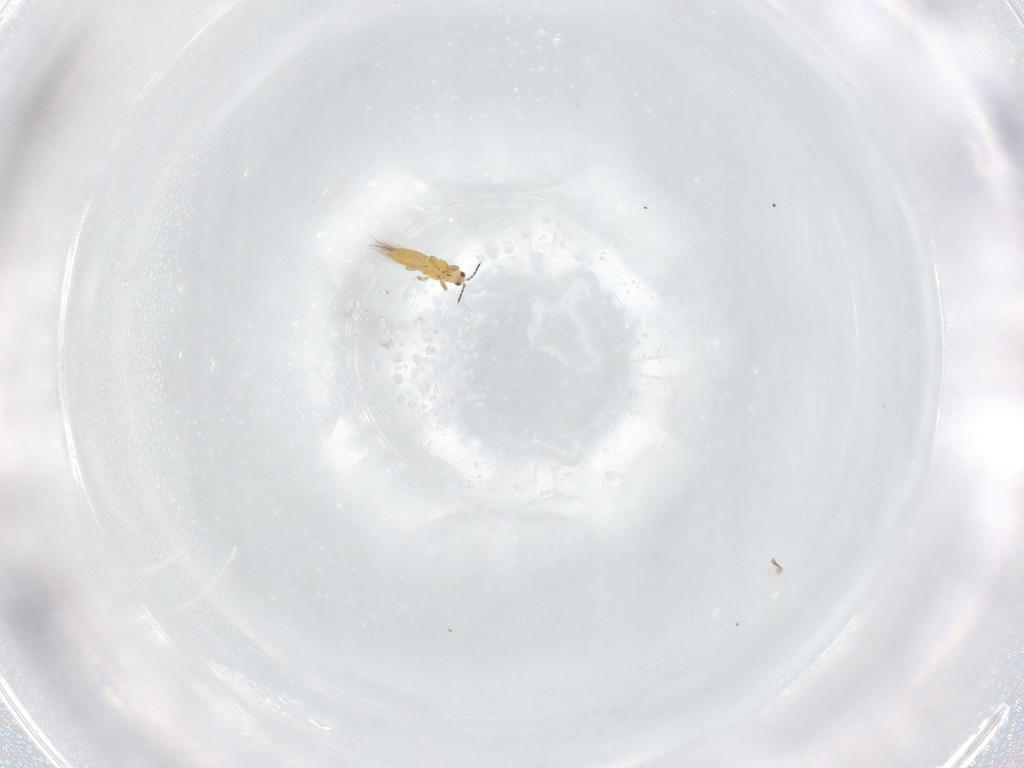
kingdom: Animalia
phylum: Arthropoda
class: Insecta
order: Thysanoptera
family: Thripidae
